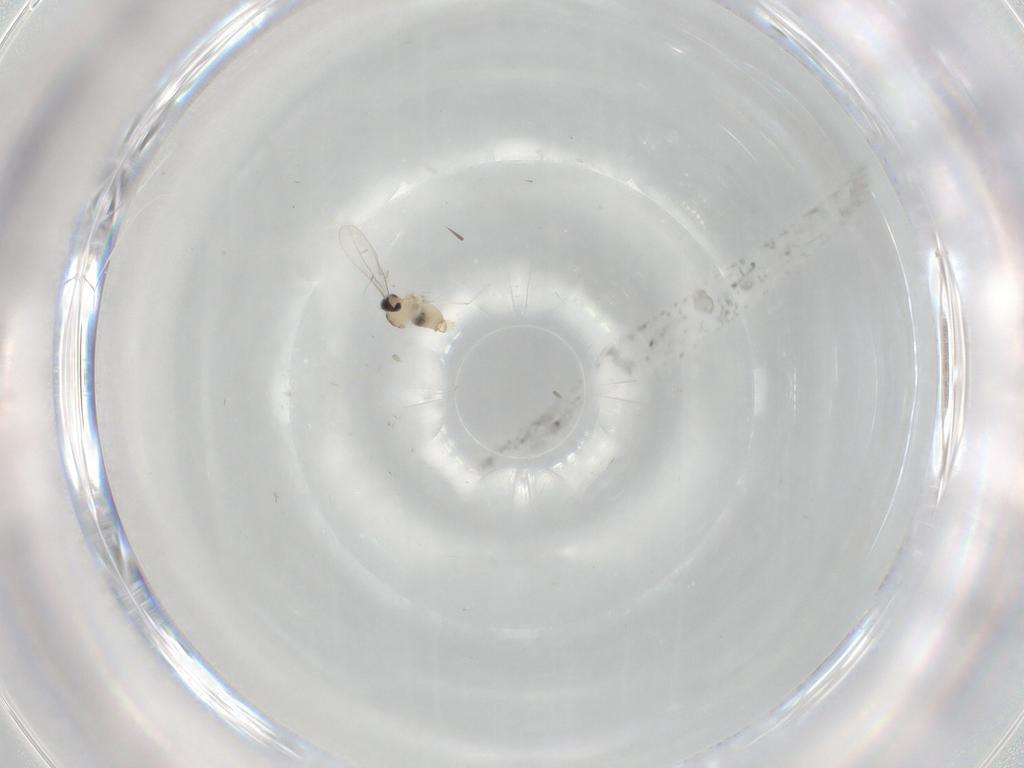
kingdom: Animalia
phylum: Arthropoda
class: Insecta
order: Diptera
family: Cecidomyiidae
